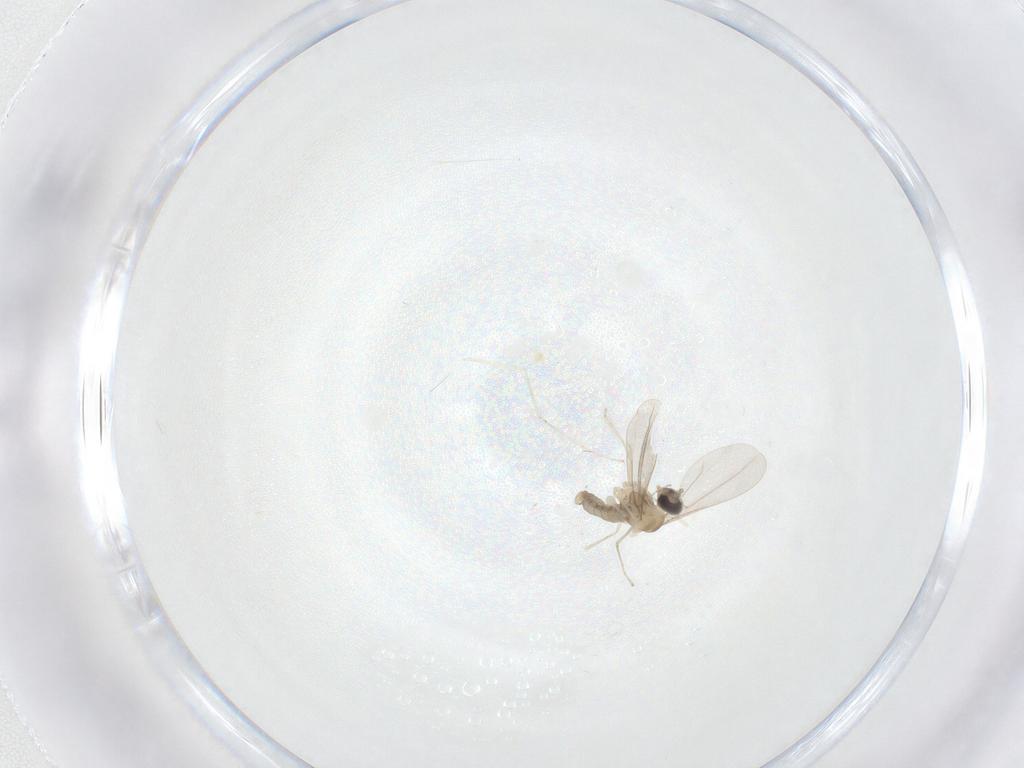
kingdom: Animalia
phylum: Arthropoda
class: Insecta
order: Diptera
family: Cecidomyiidae
